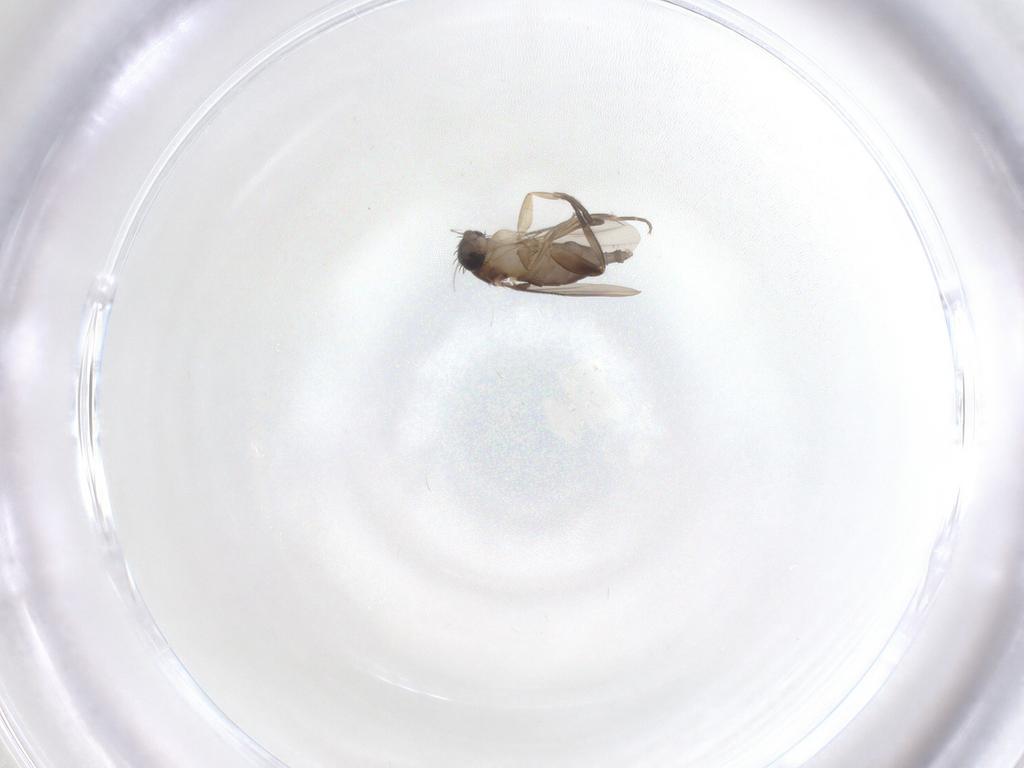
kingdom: Animalia
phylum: Arthropoda
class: Insecta
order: Diptera
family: Phoridae
